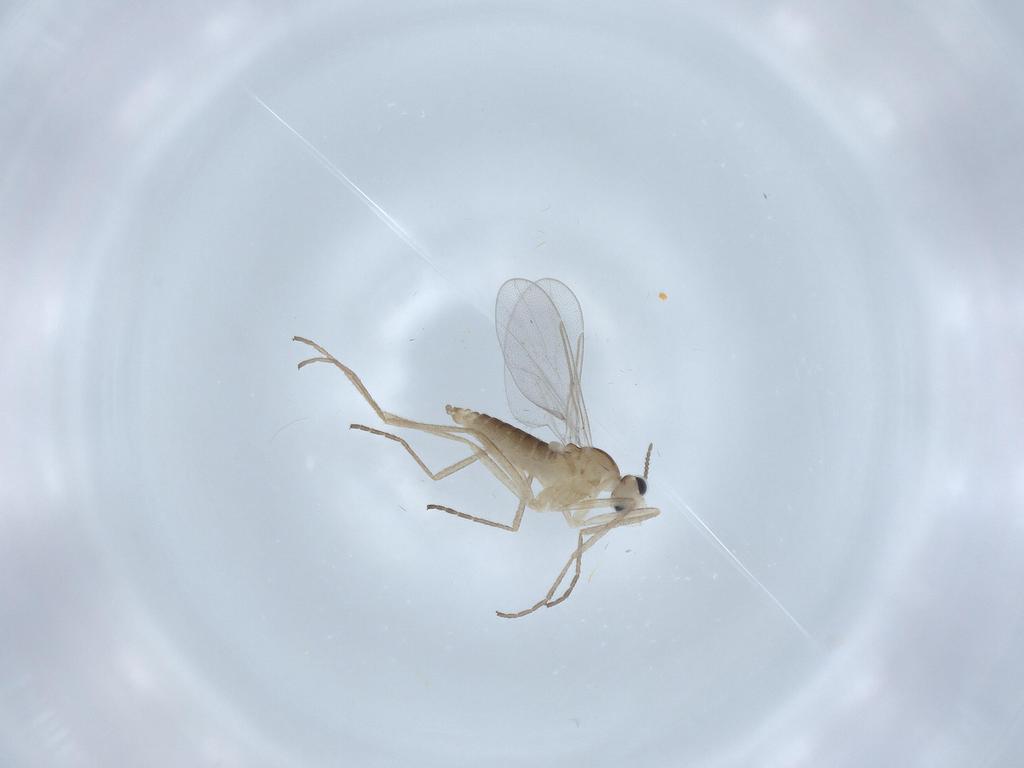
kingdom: Animalia
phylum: Arthropoda
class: Insecta
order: Diptera
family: Cecidomyiidae
